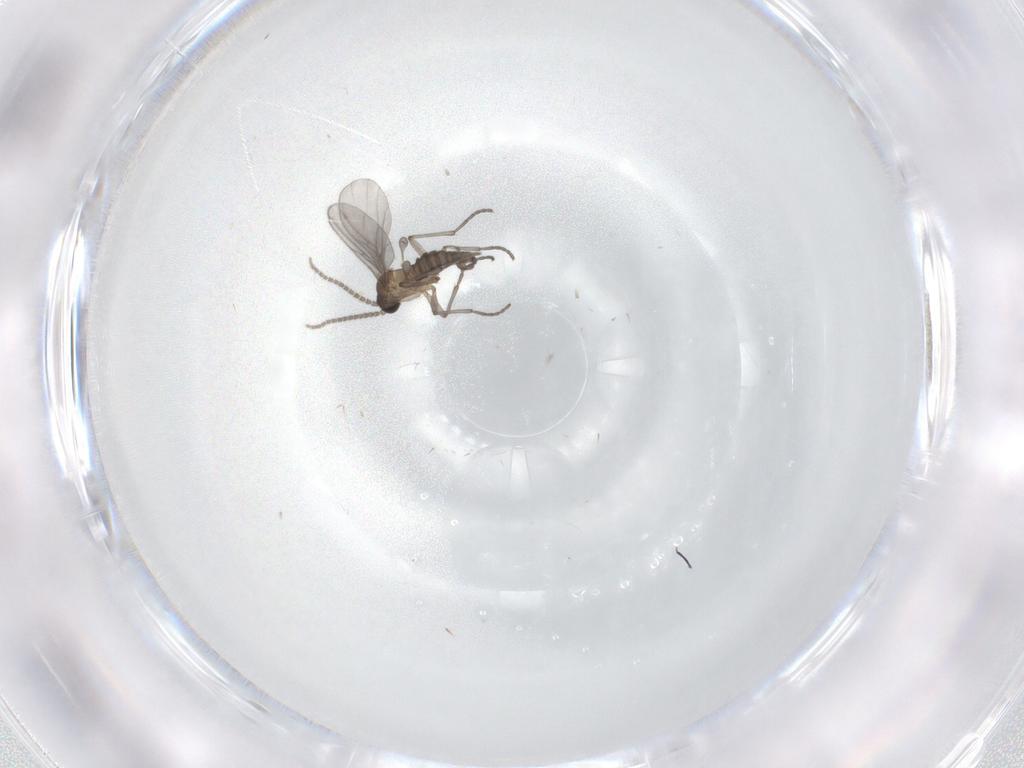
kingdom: Animalia
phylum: Arthropoda
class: Insecta
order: Diptera
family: Sciaridae
